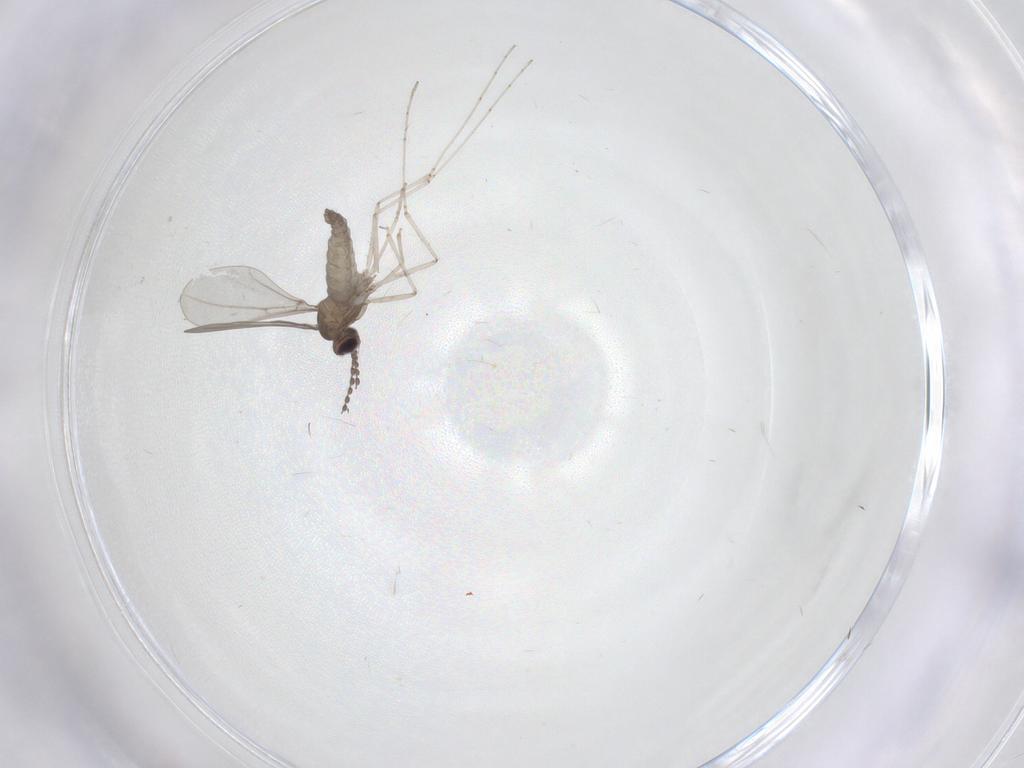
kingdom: Animalia
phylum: Arthropoda
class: Insecta
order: Diptera
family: Cecidomyiidae
